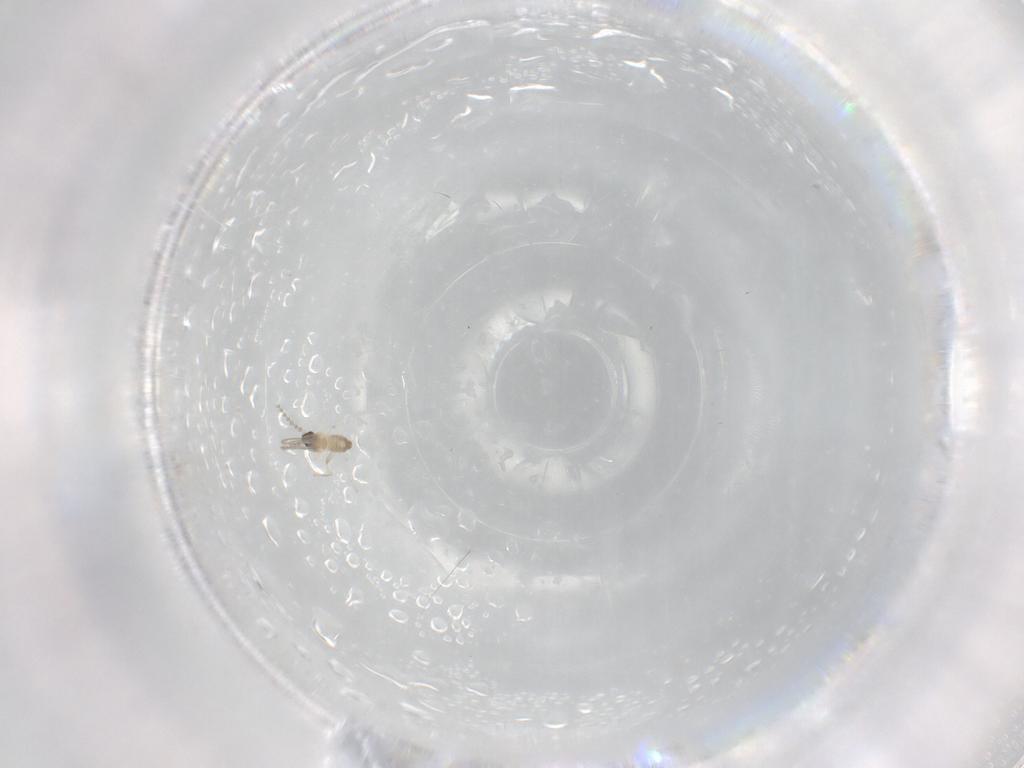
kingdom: Animalia
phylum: Arthropoda
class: Insecta
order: Diptera
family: Cecidomyiidae
